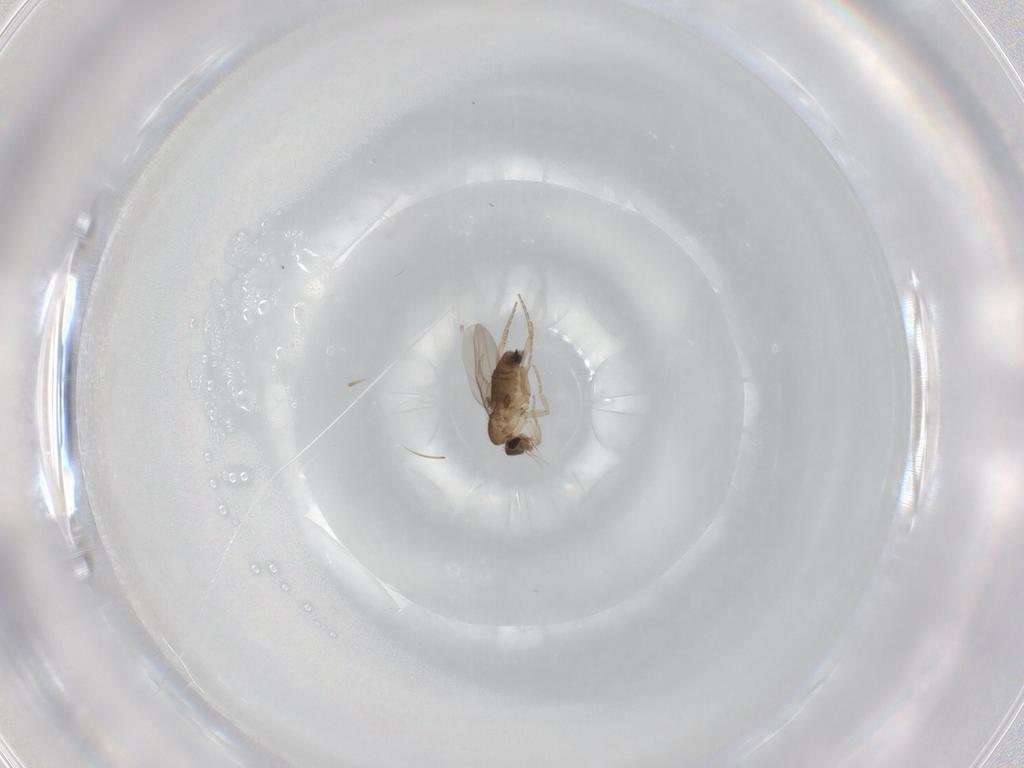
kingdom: Animalia
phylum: Arthropoda
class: Insecta
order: Diptera
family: Phoridae
